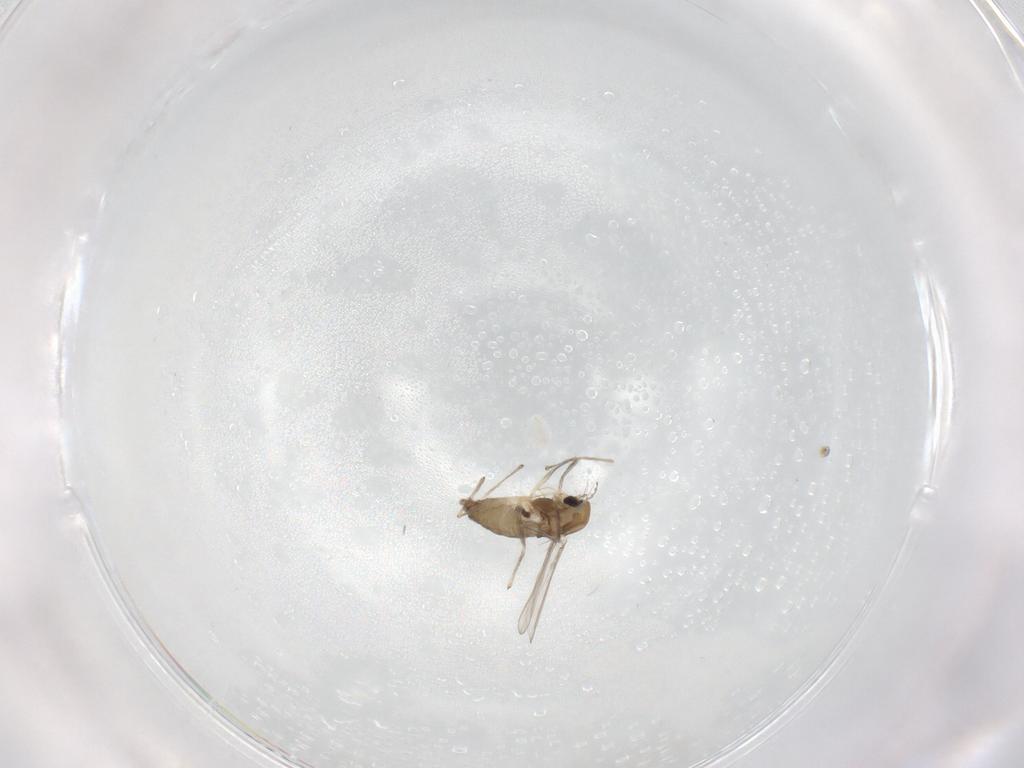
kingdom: Animalia
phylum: Arthropoda
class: Insecta
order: Diptera
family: Chironomidae
